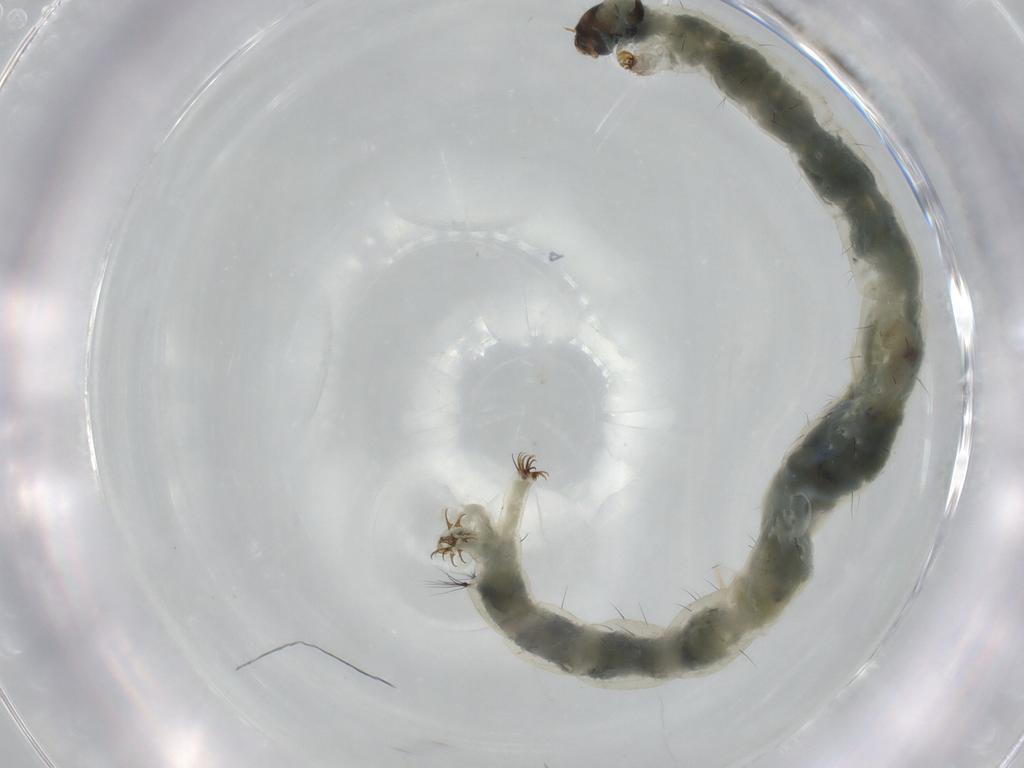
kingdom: Animalia
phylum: Arthropoda
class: Insecta
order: Diptera
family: Chironomidae
